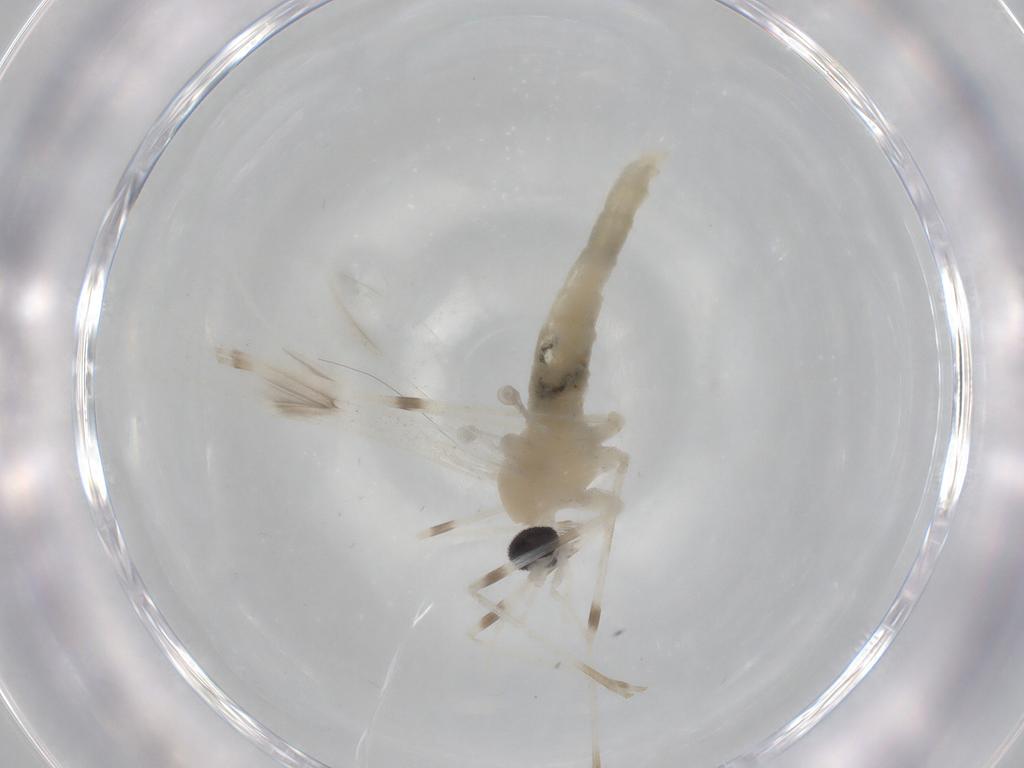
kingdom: Animalia
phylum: Arthropoda
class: Insecta
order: Diptera
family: Cecidomyiidae
